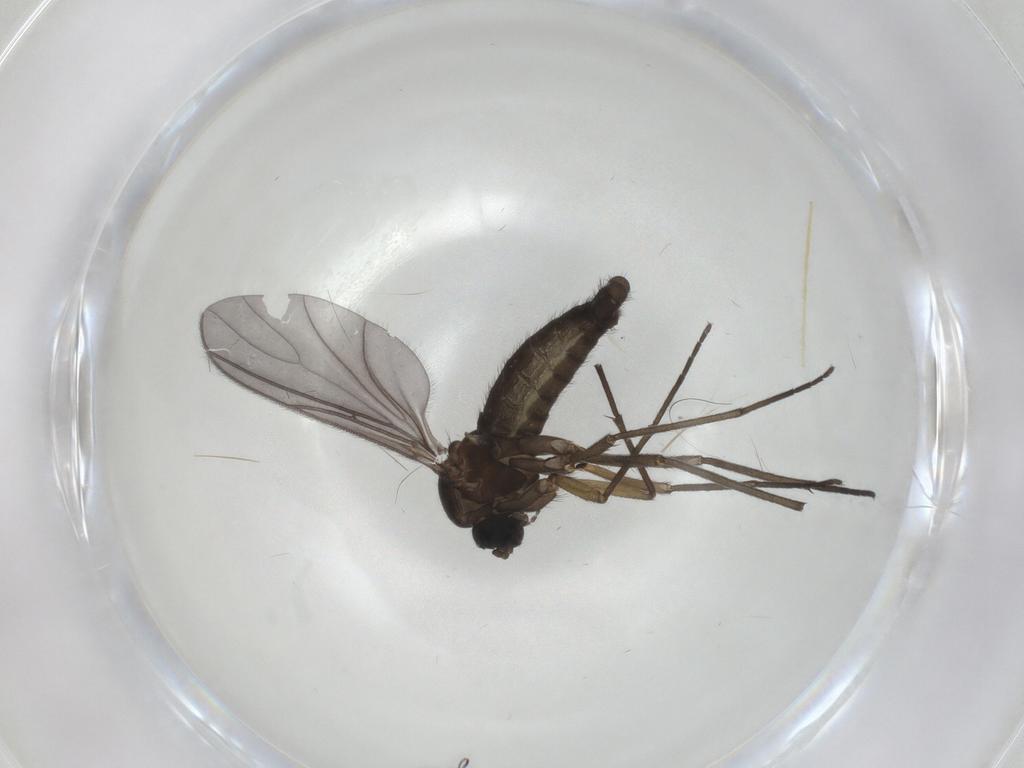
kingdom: Animalia
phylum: Arthropoda
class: Insecta
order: Diptera
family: Sciaridae
